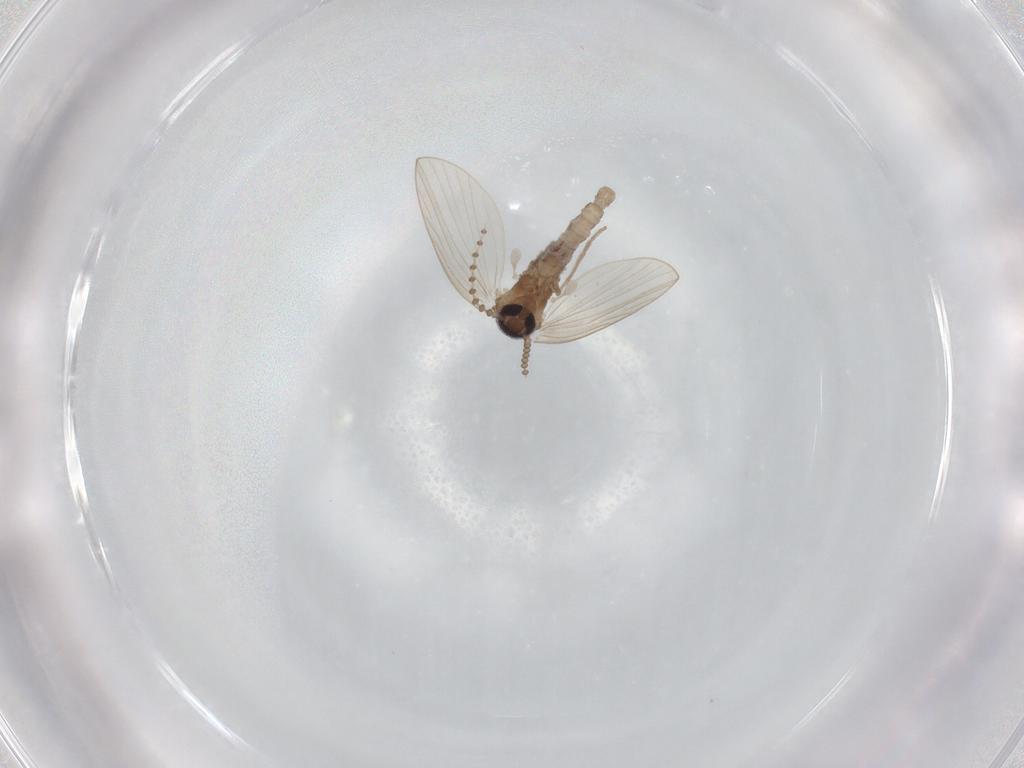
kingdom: Animalia
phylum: Arthropoda
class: Insecta
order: Diptera
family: Psychodidae
